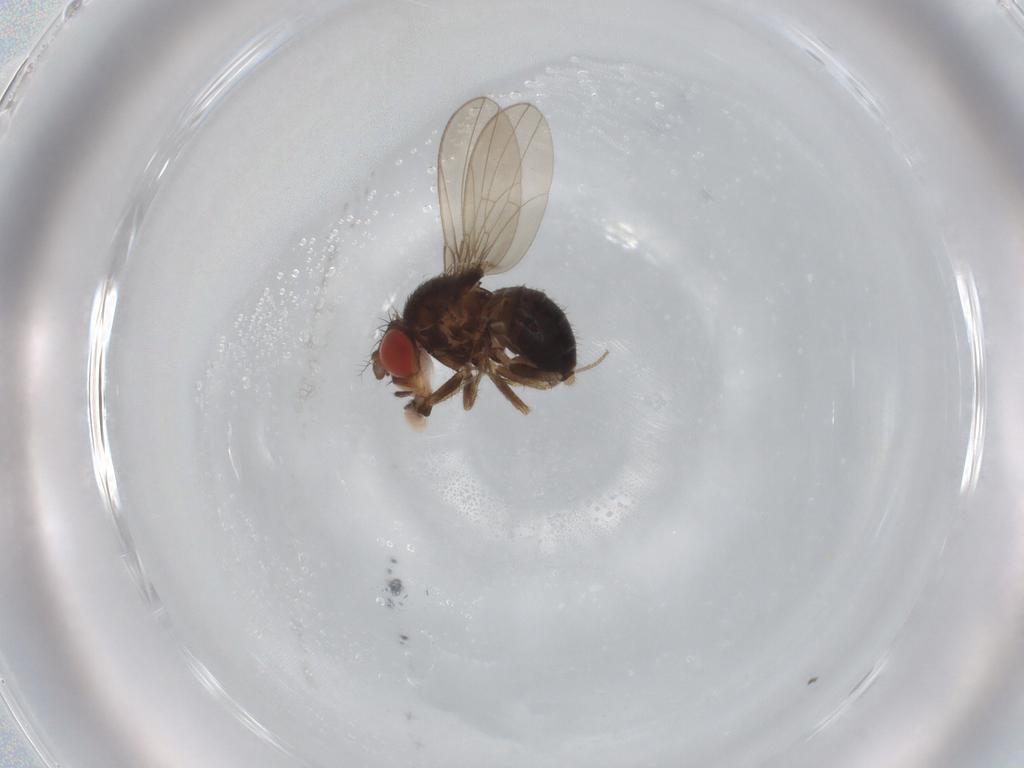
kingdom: Animalia
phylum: Arthropoda
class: Insecta
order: Diptera
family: Drosophilidae
